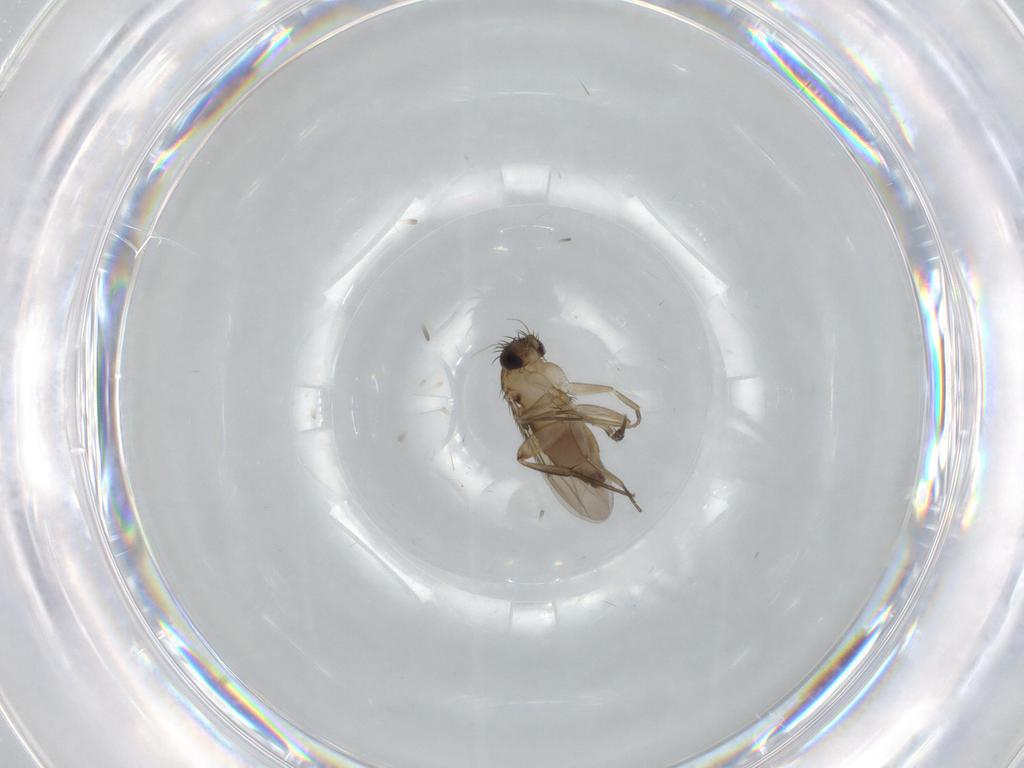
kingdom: Animalia
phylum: Arthropoda
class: Insecta
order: Diptera
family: Phoridae
